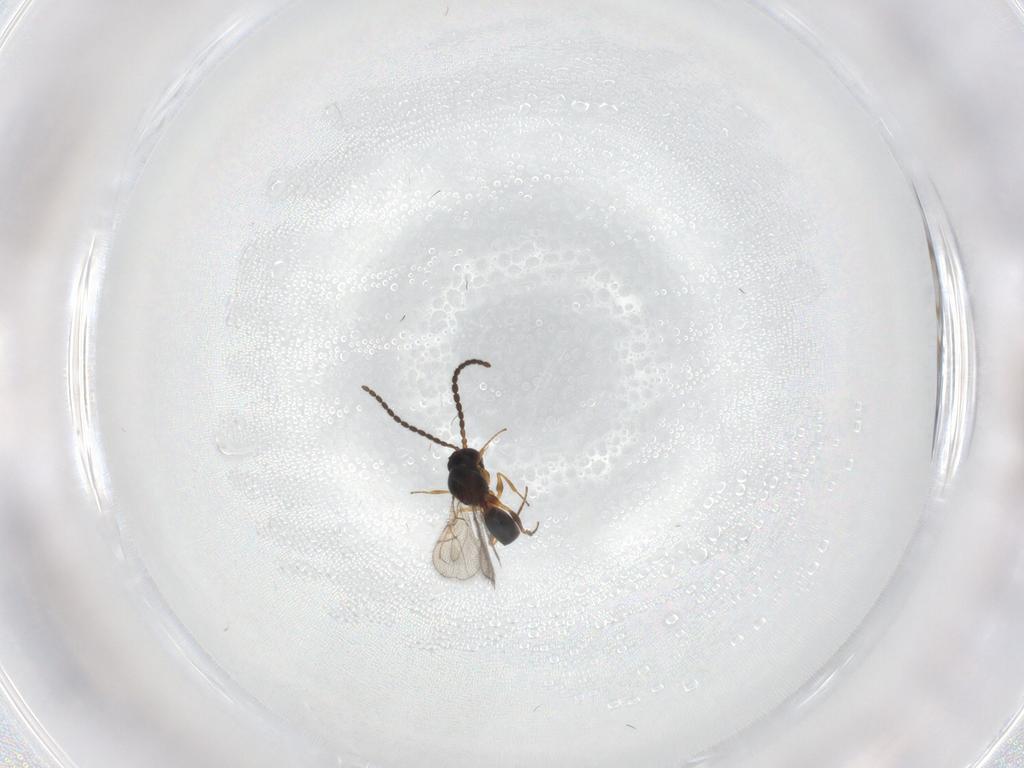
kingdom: Animalia
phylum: Arthropoda
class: Insecta
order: Hymenoptera
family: Figitidae
